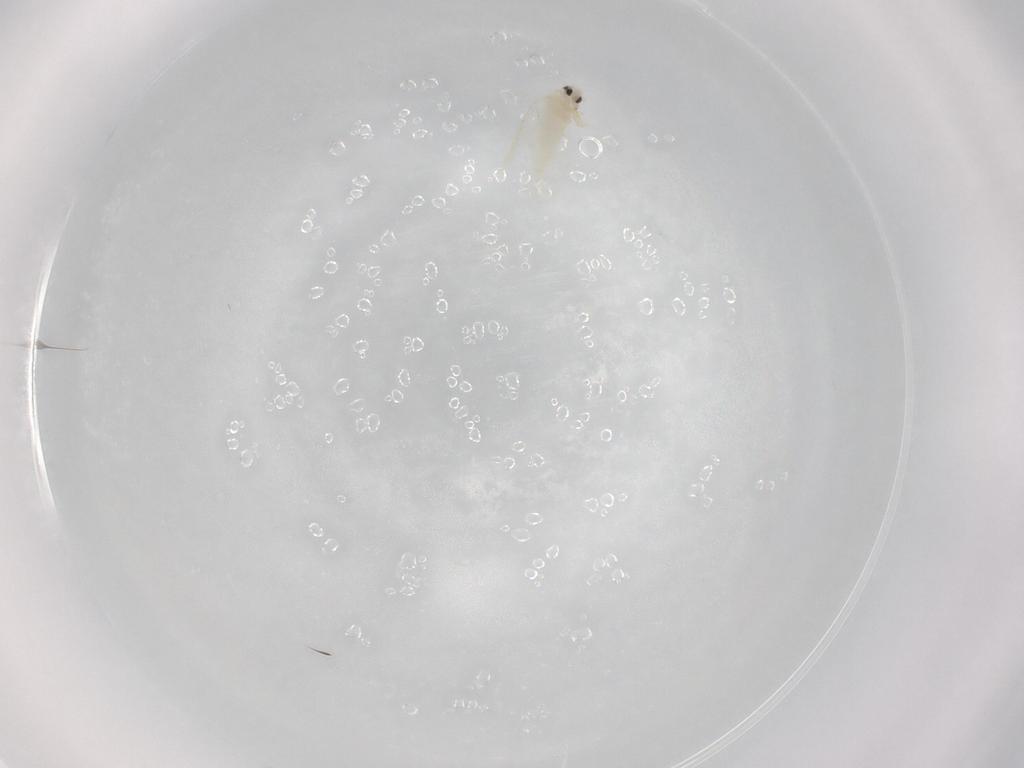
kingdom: Animalia
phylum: Arthropoda
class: Insecta
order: Hemiptera
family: Aleyrodidae
